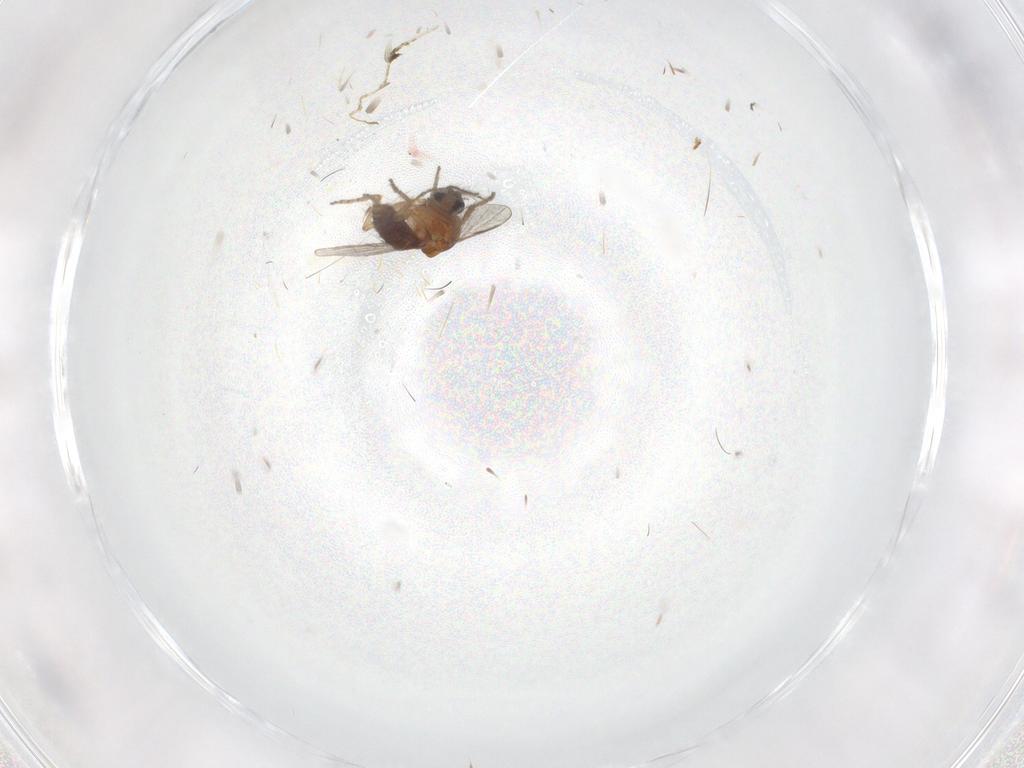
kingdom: Animalia
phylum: Arthropoda
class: Insecta
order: Diptera
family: Ceratopogonidae
